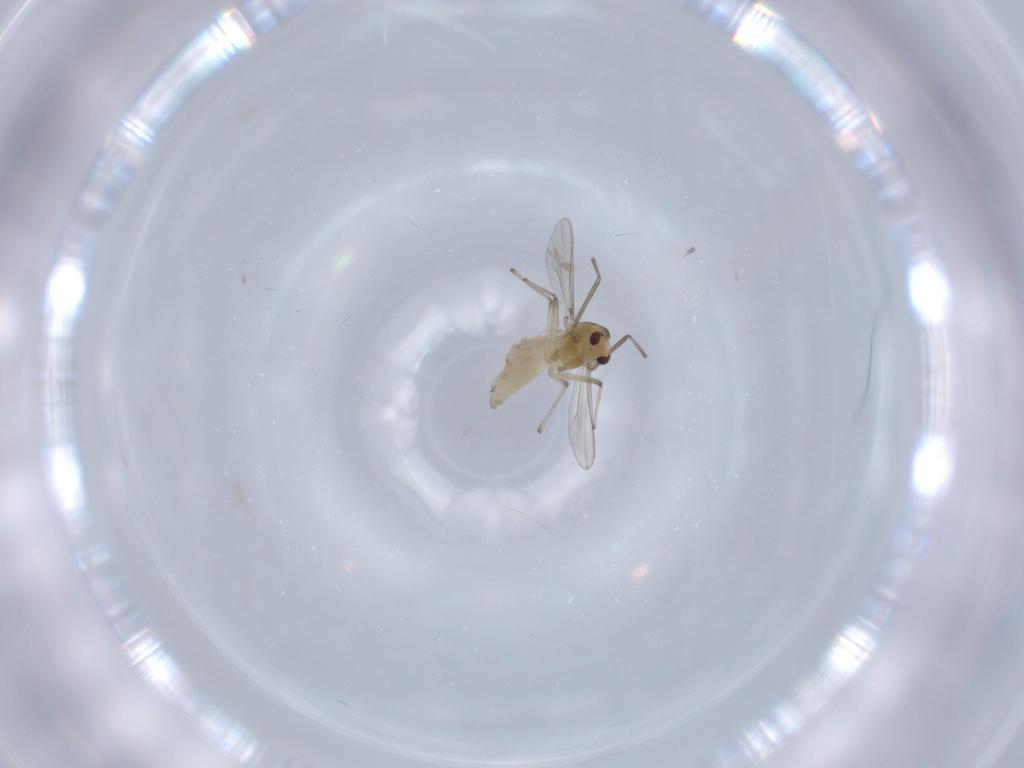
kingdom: Animalia
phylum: Arthropoda
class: Insecta
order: Diptera
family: Chironomidae
